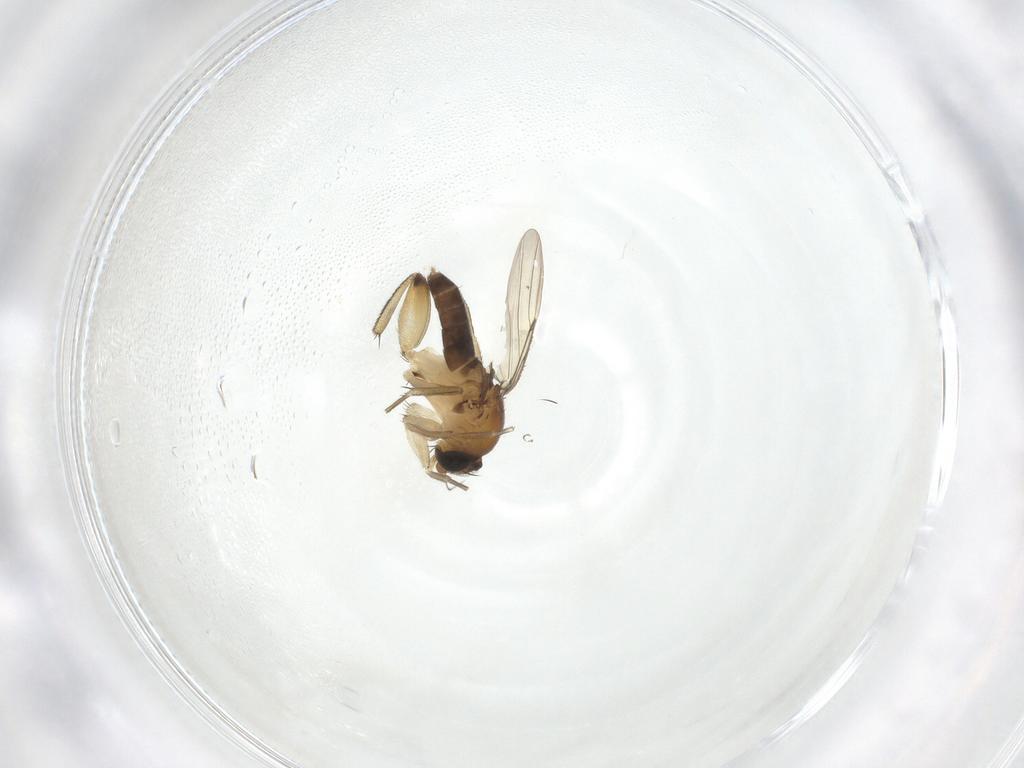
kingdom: Animalia
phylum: Arthropoda
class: Insecta
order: Diptera
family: Phoridae
